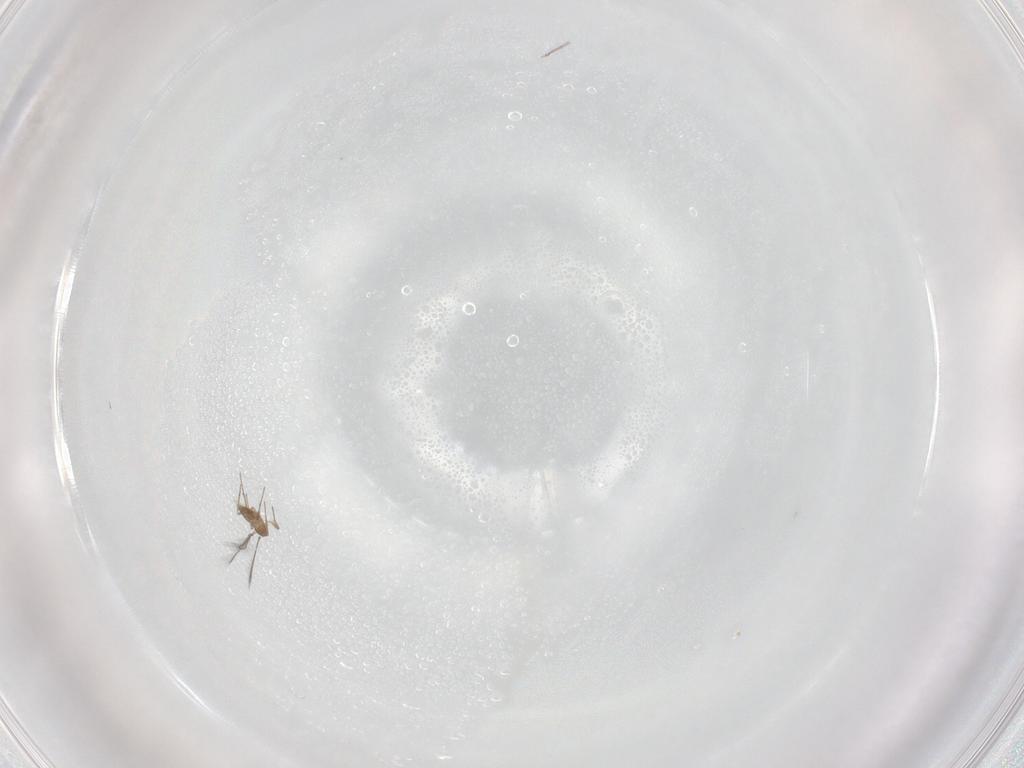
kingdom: Animalia
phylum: Arthropoda
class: Insecta
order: Hymenoptera
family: Mymaridae
